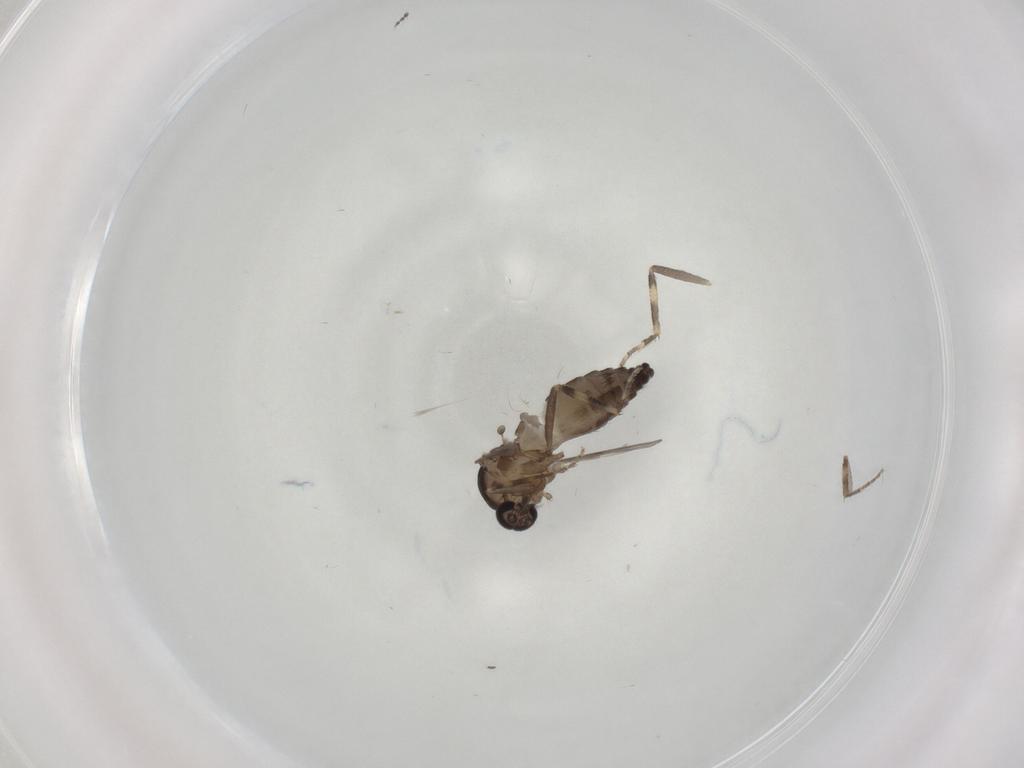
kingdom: Animalia
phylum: Arthropoda
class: Insecta
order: Diptera
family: Ceratopogonidae
